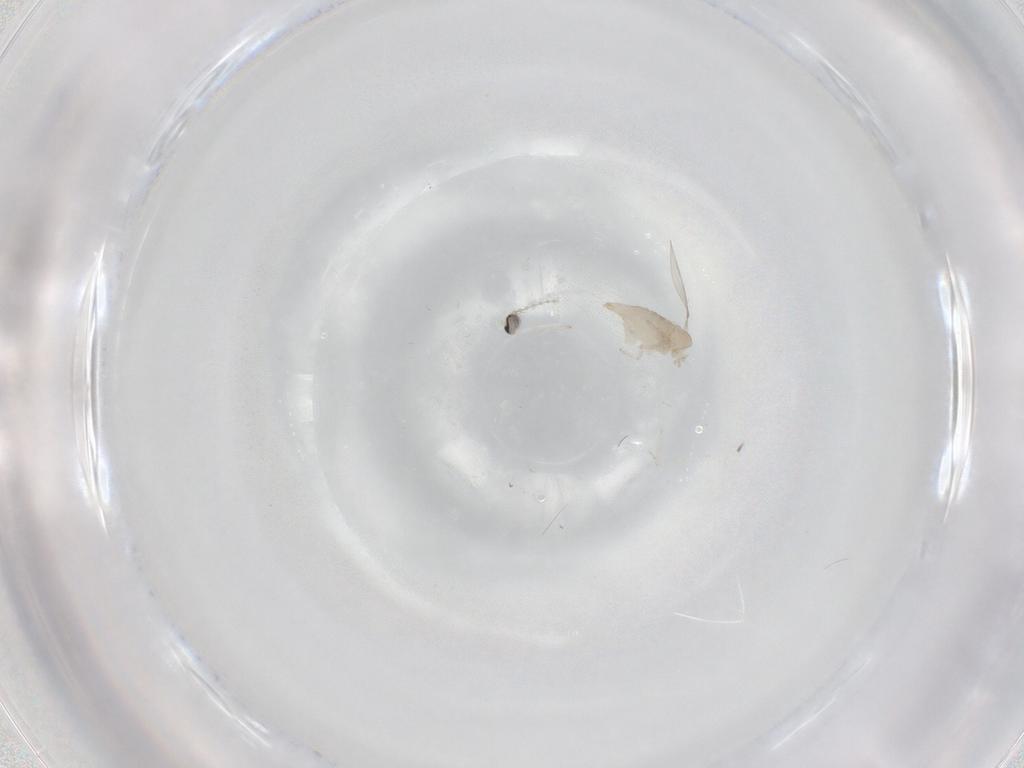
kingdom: Animalia
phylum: Arthropoda
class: Insecta
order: Diptera
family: Cecidomyiidae
